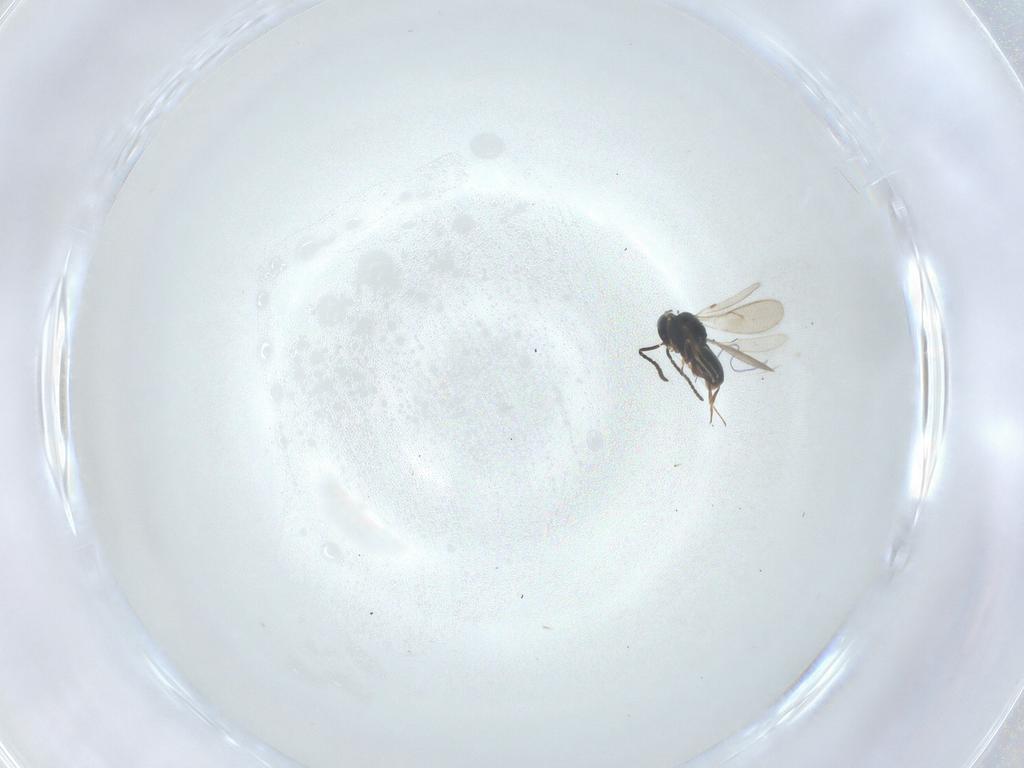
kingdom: Animalia
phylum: Arthropoda
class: Insecta
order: Hymenoptera
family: Scelionidae
